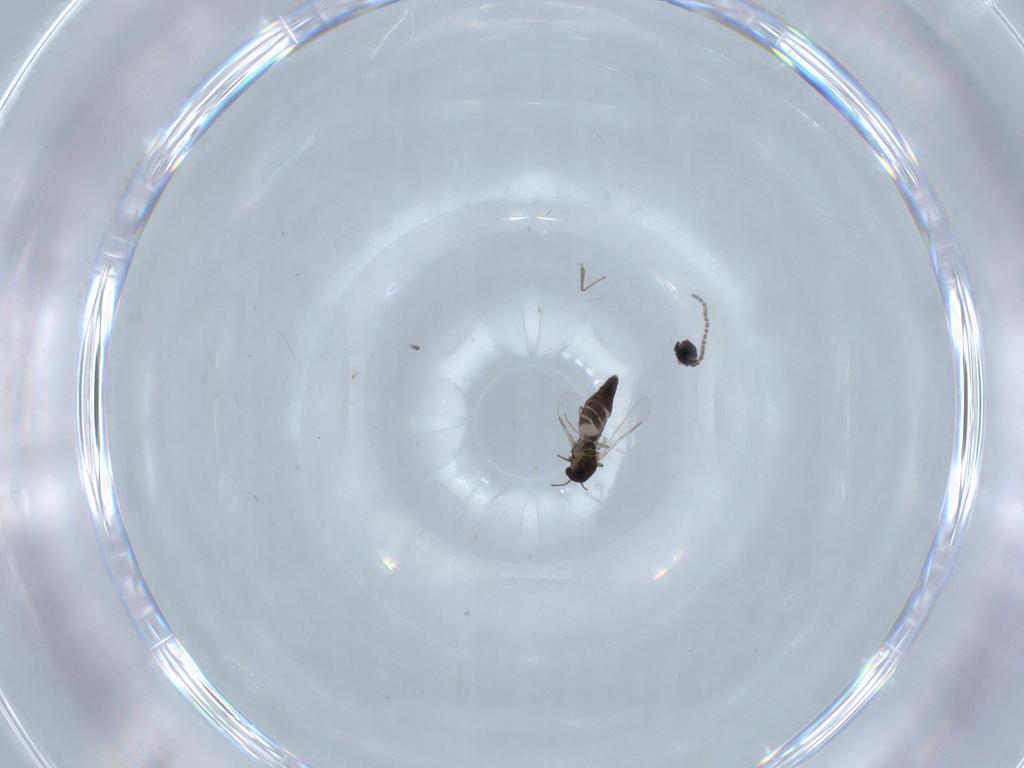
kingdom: Animalia
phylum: Arthropoda
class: Insecta
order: Diptera
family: Chironomidae
